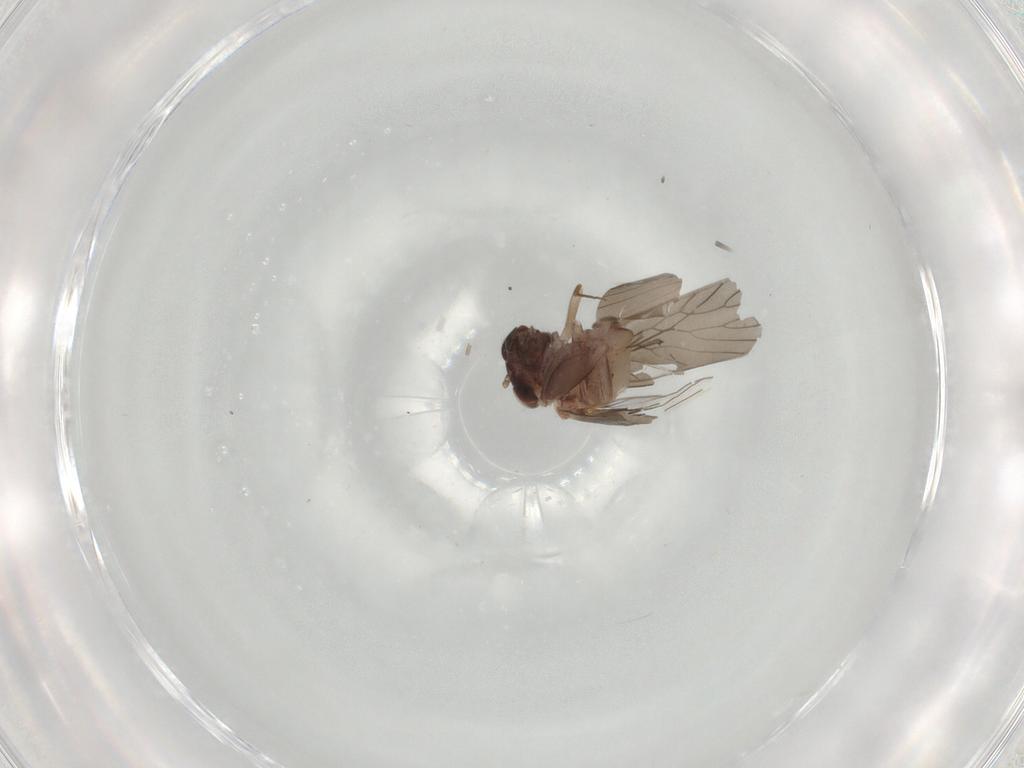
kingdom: Animalia
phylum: Arthropoda
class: Insecta
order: Psocodea
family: Lepidopsocidae
